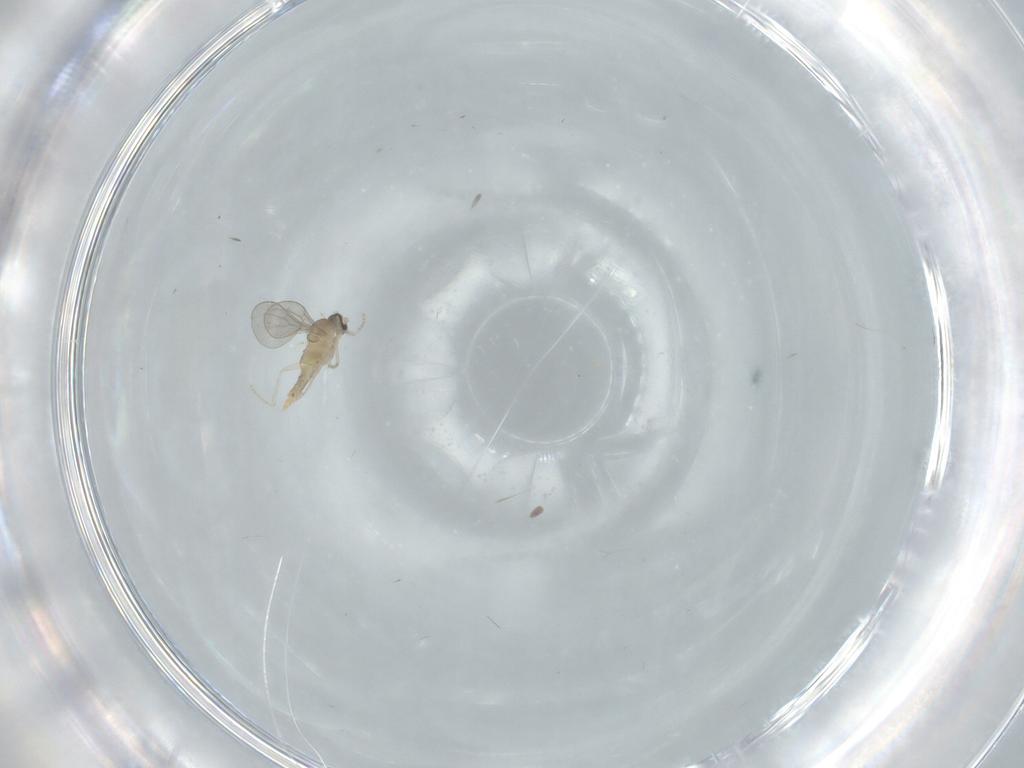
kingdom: Animalia
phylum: Arthropoda
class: Insecta
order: Diptera
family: Cecidomyiidae
